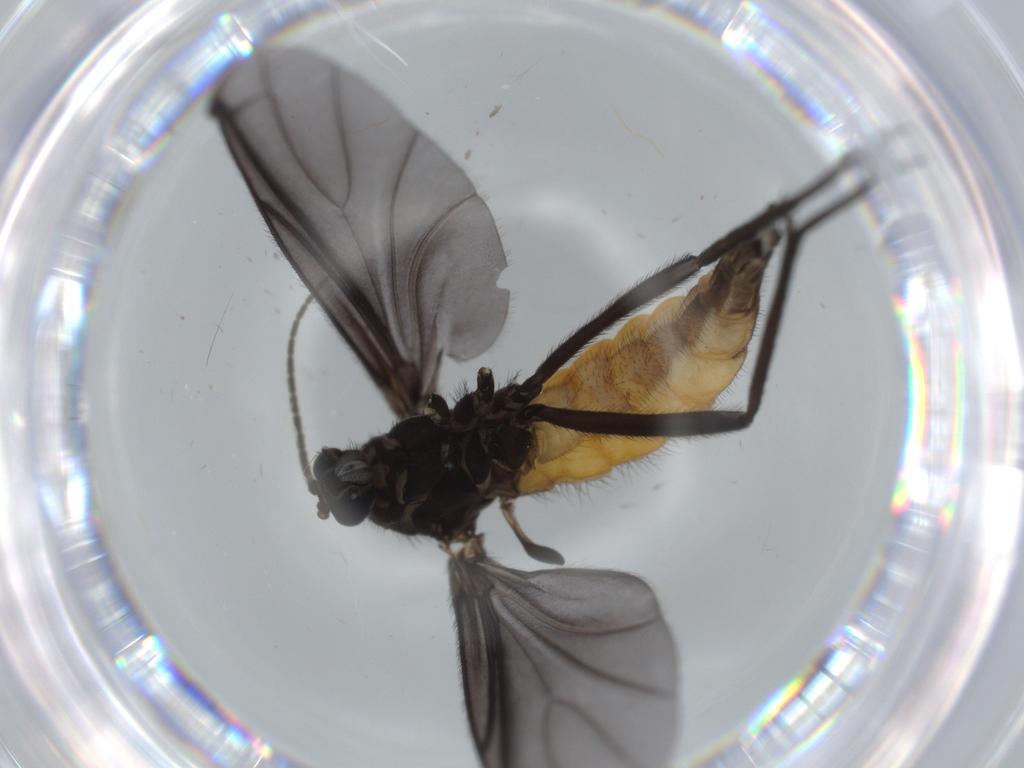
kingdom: Animalia
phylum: Arthropoda
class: Insecta
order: Diptera
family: Cecidomyiidae
